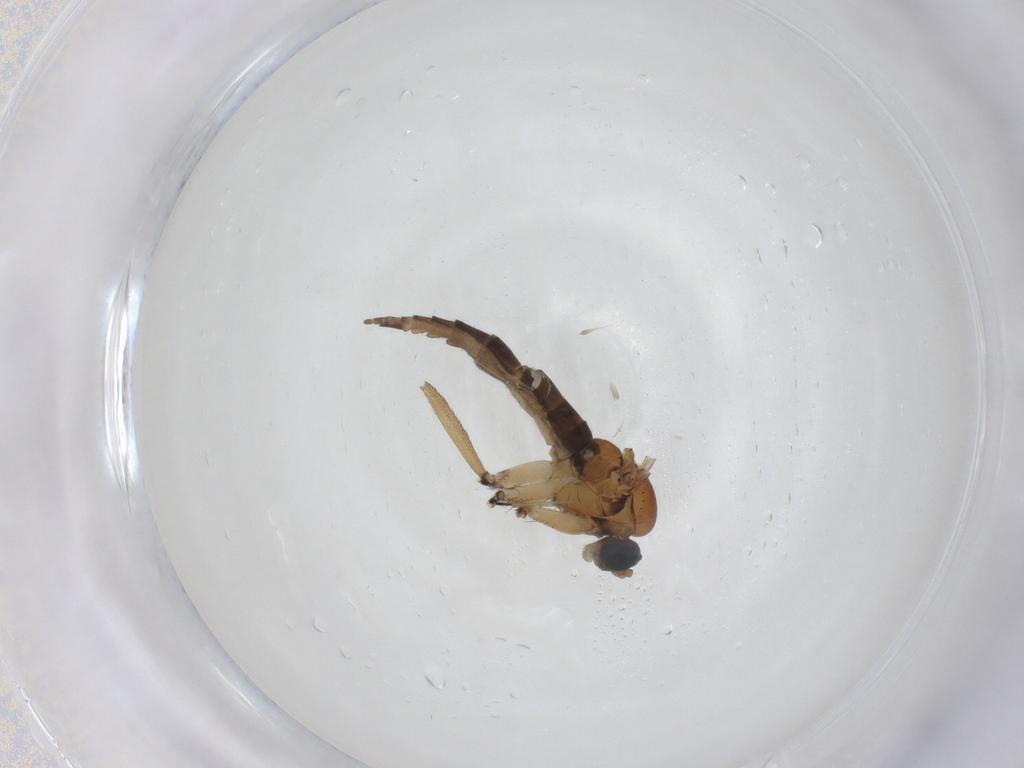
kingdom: Animalia
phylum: Arthropoda
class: Insecta
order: Diptera
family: Sciaridae
